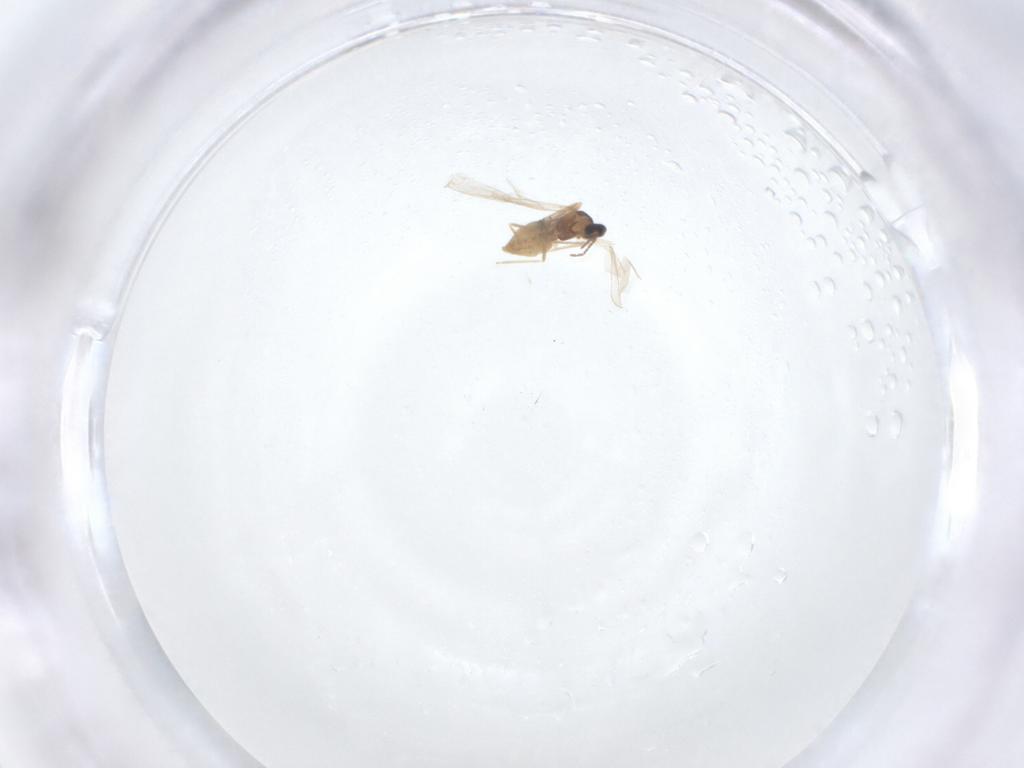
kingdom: Animalia
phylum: Arthropoda
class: Insecta
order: Diptera
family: Cecidomyiidae
